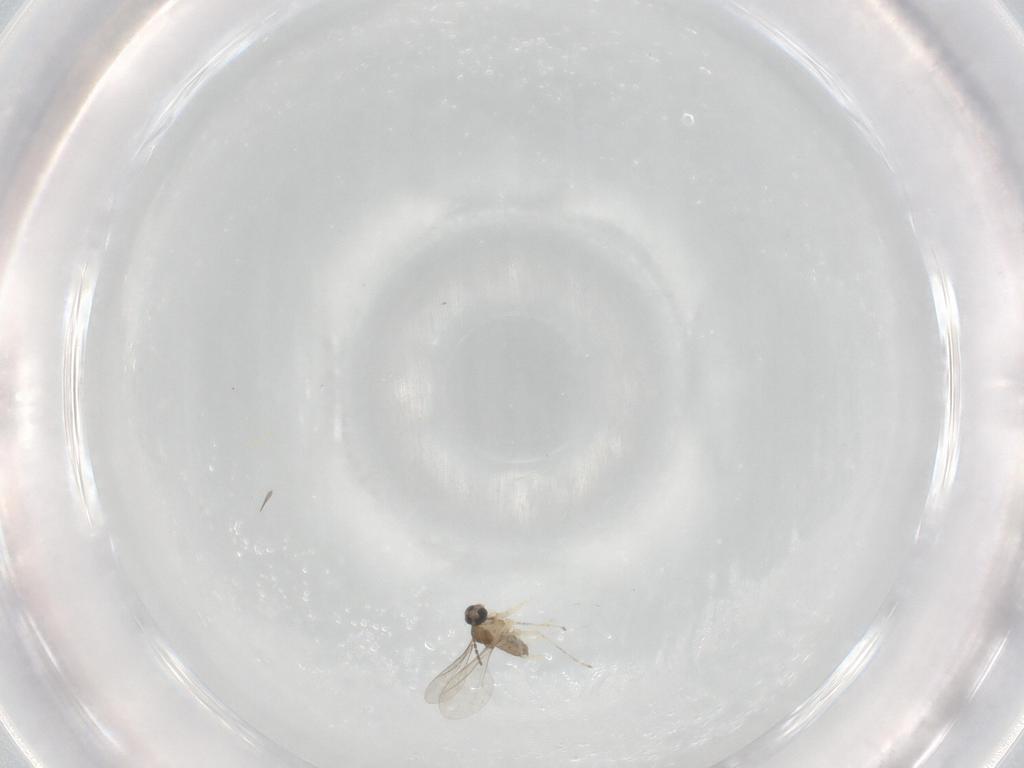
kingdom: Animalia
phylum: Arthropoda
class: Insecta
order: Diptera
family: Cecidomyiidae
